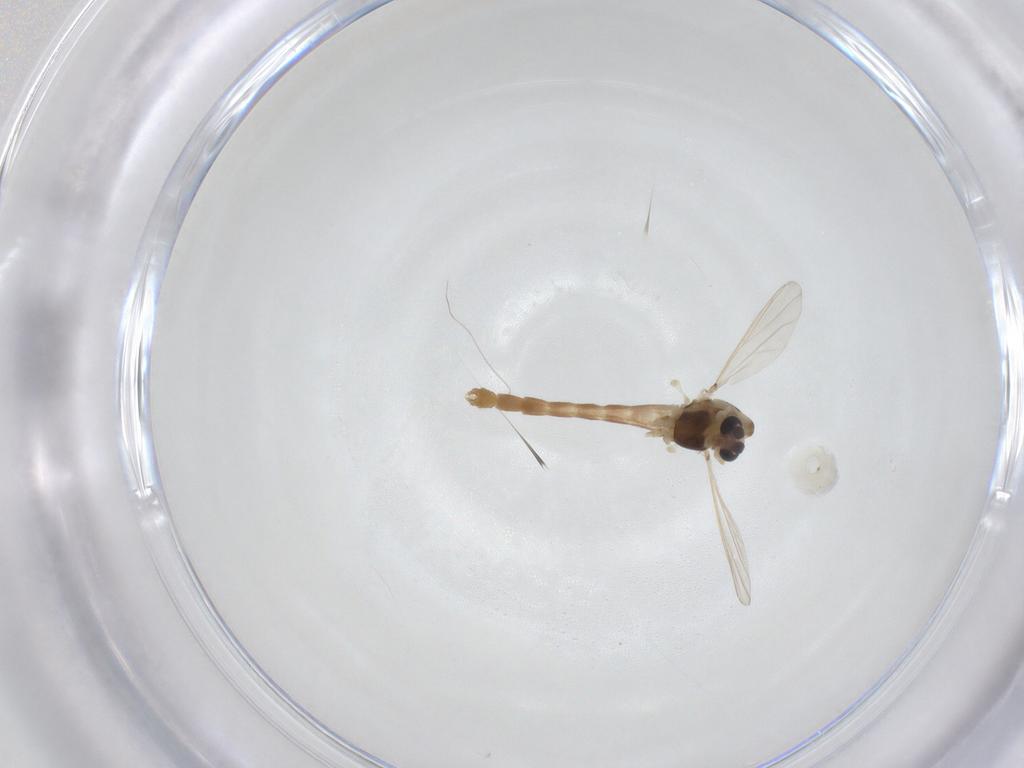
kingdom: Animalia
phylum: Arthropoda
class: Insecta
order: Diptera
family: Chironomidae
